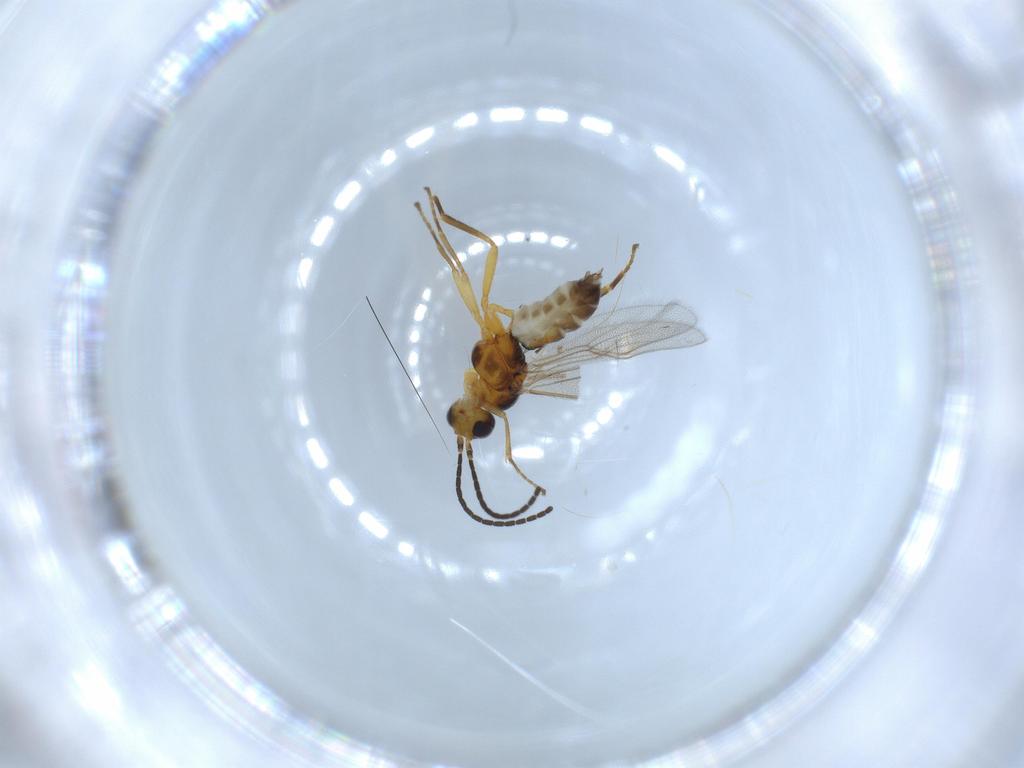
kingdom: Animalia
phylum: Arthropoda
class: Insecta
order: Hymenoptera
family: Braconidae
